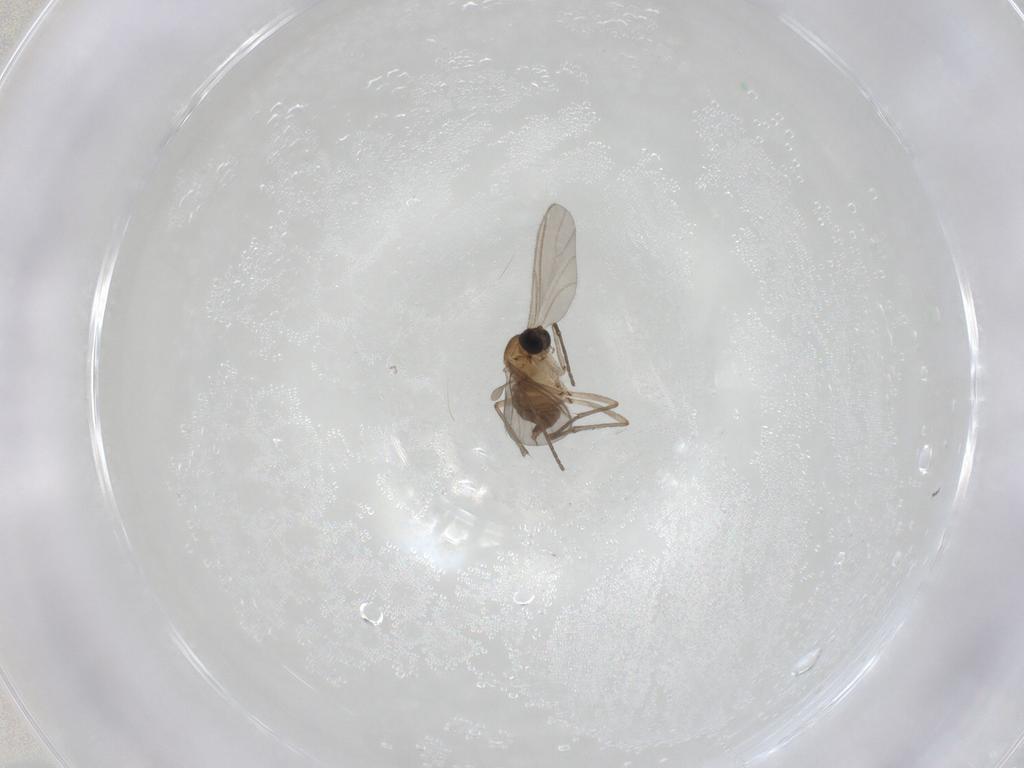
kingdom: Animalia
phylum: Arthropoda
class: Insecta
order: Diptera
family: Sciaridae
